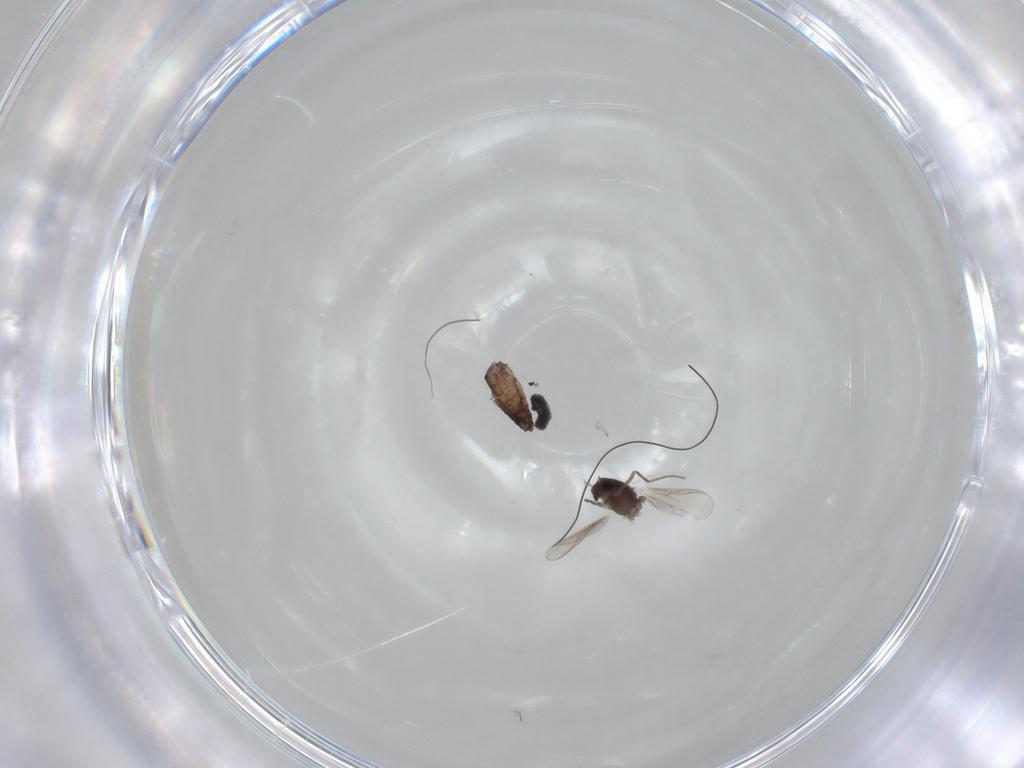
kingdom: Animalia
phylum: Arthropoda
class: Insecta
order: Diptera
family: Chironomidae
